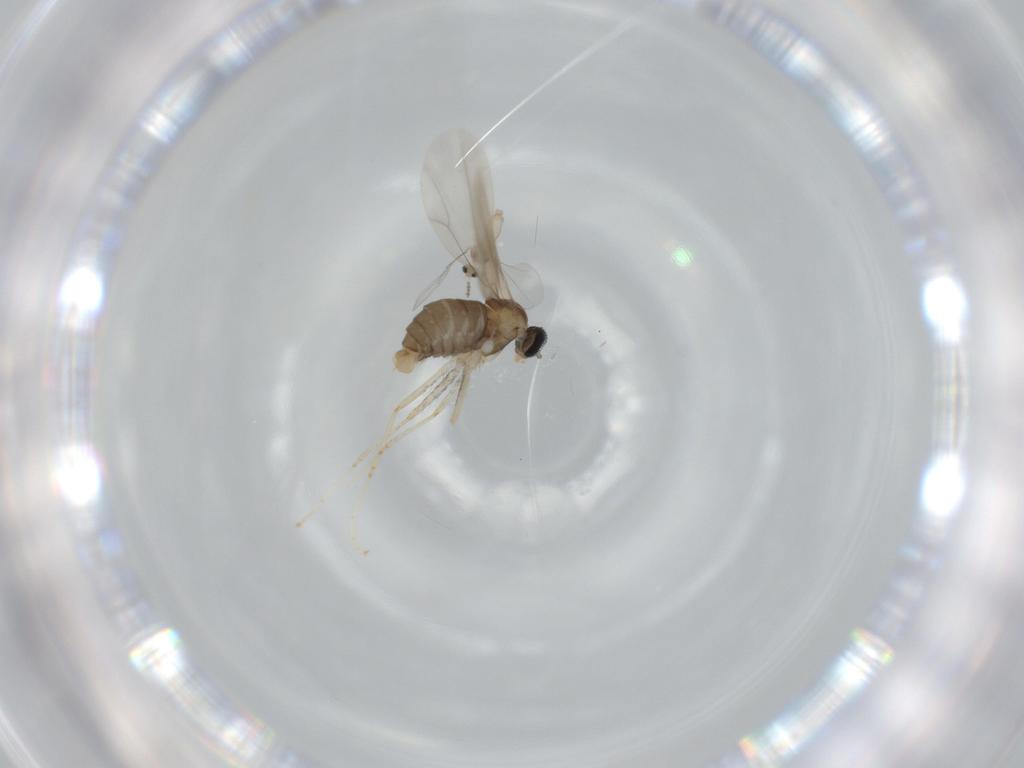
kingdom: Animalia
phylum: Arthropoda
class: Insecta
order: Diptera
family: Cecidomyiidae
